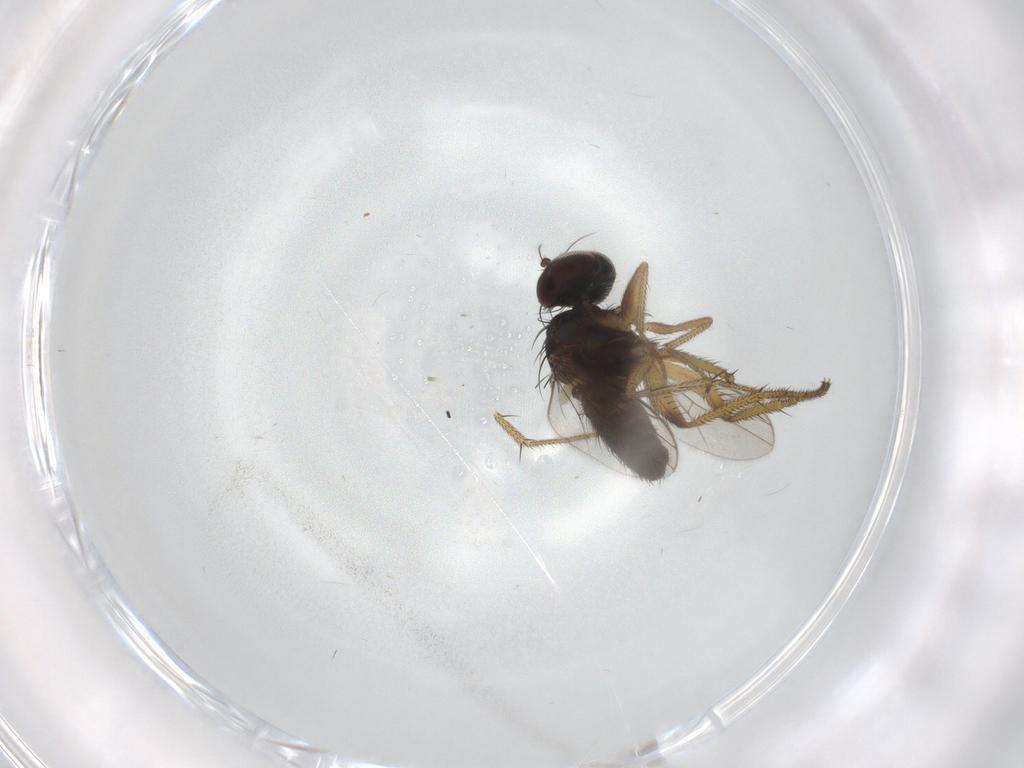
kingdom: Animalia
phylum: Arthropoda
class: Insecta
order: Diptera
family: Dolichopodidae
